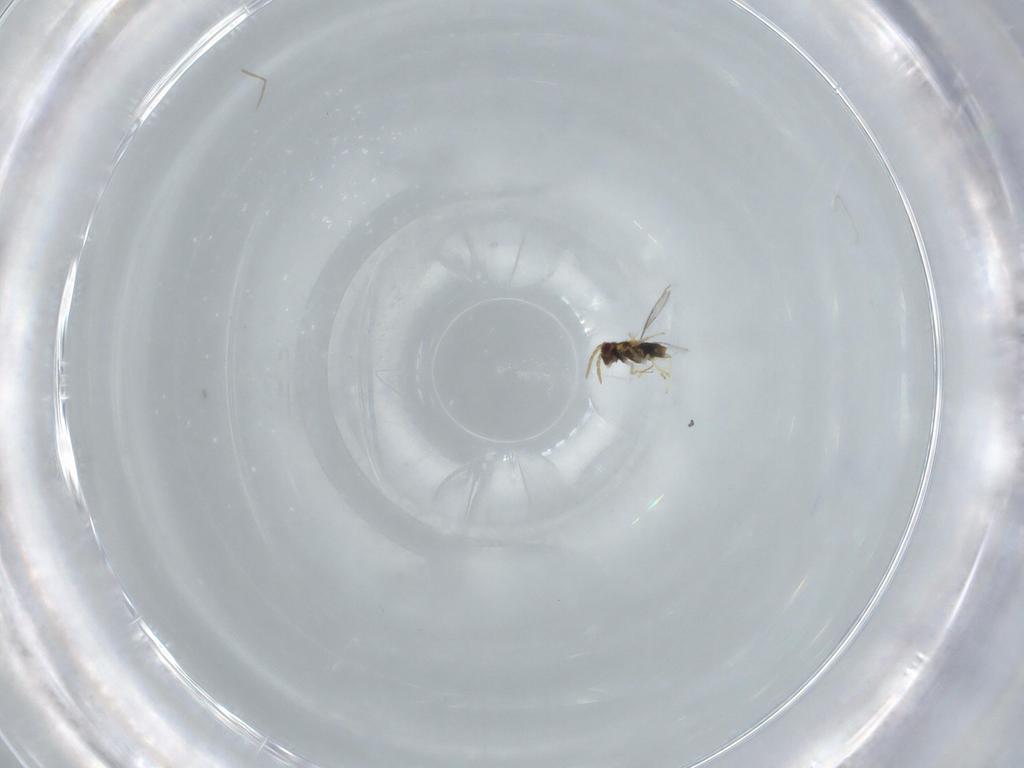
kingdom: Animalia
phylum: Arthropoda
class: Insecta
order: Hymenoptera
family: Aphelinidae
